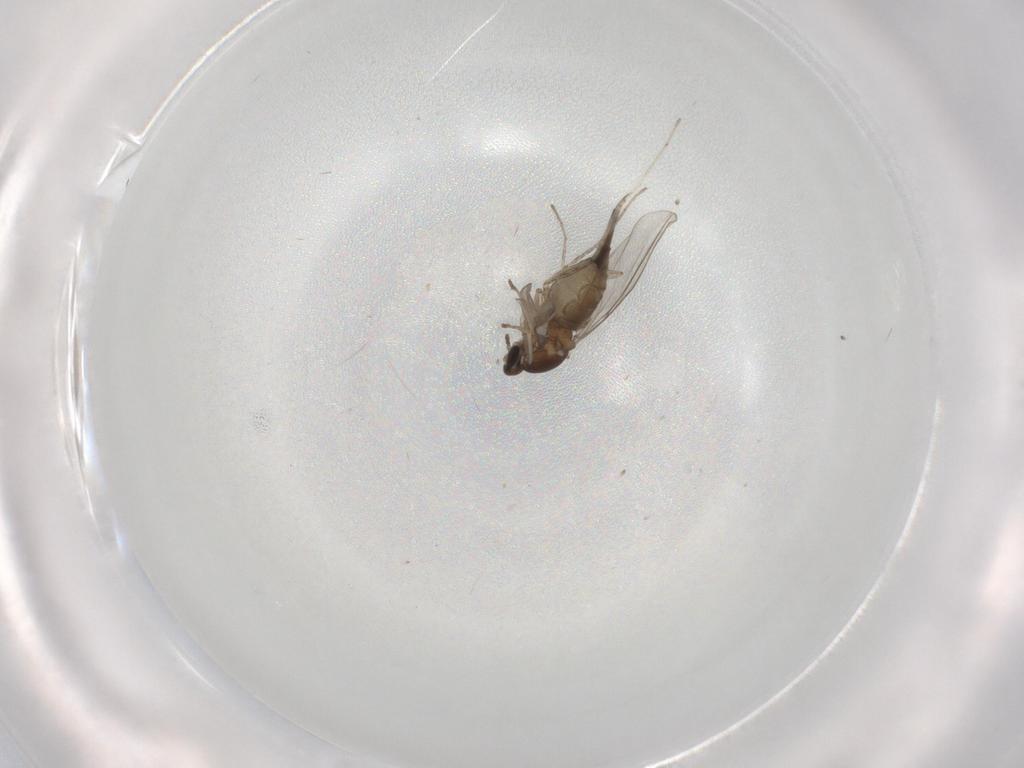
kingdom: Animalia
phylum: Arthropoda
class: Insecta
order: Diptera
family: Cecidomyiidae
